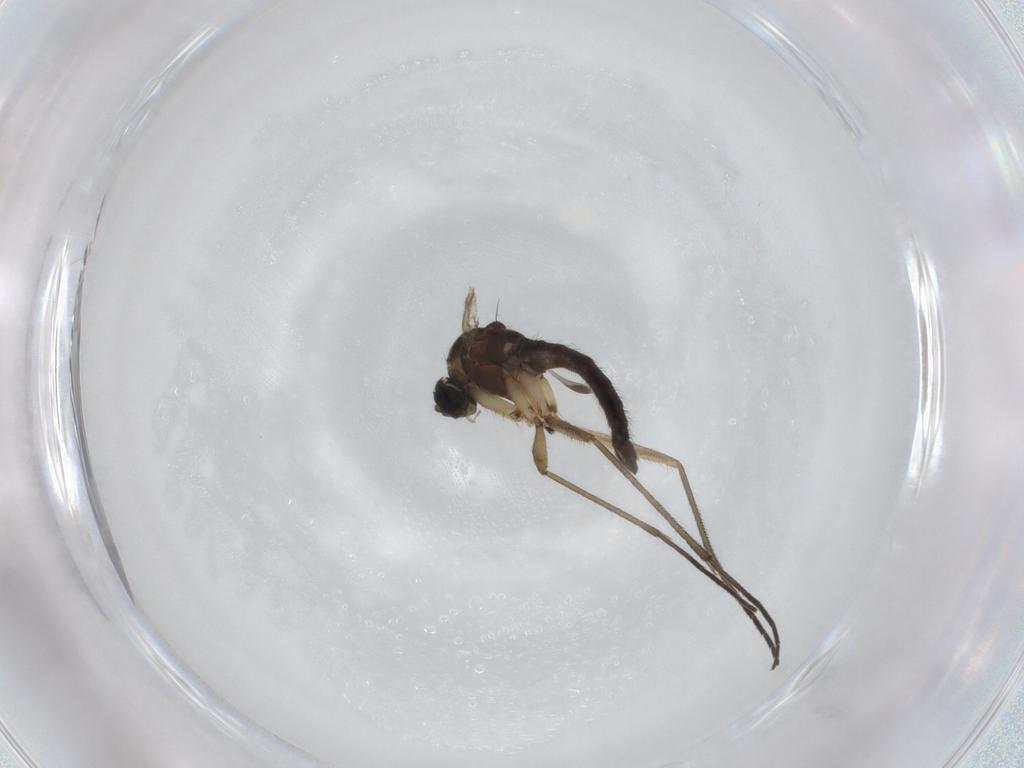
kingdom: Animalia
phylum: Arthropoda
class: Insecta
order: Diptera
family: Sciaridae
